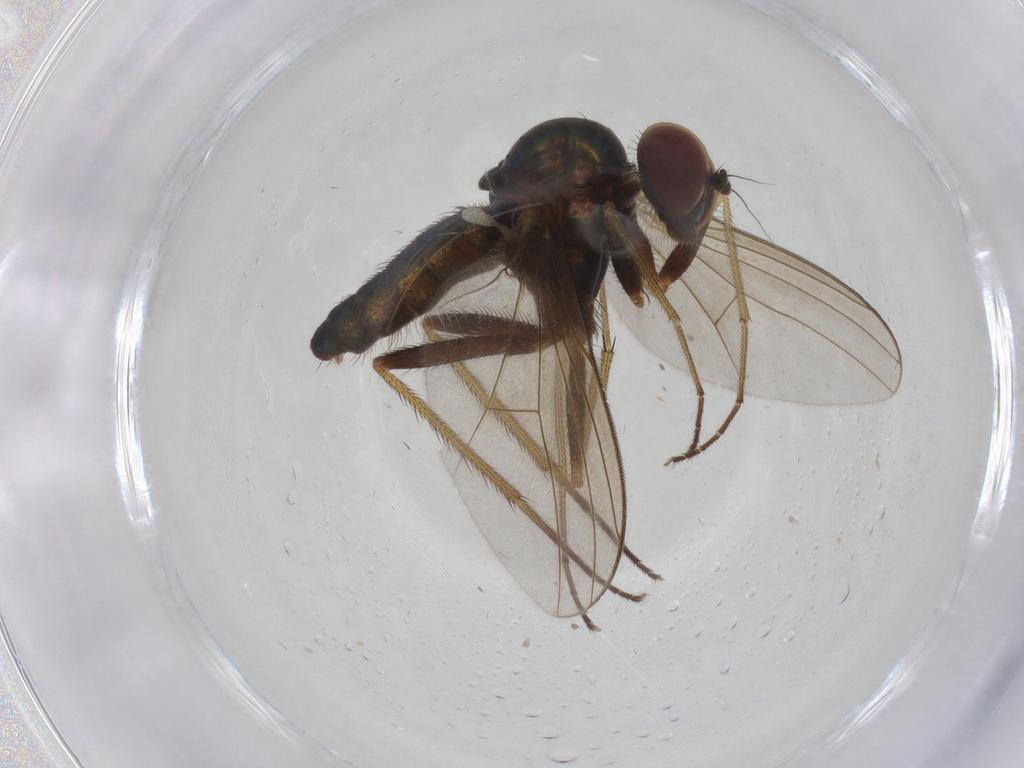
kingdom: Animalia
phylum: Arthropoda
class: Insecta
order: Diptera
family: Dolichopodidae
